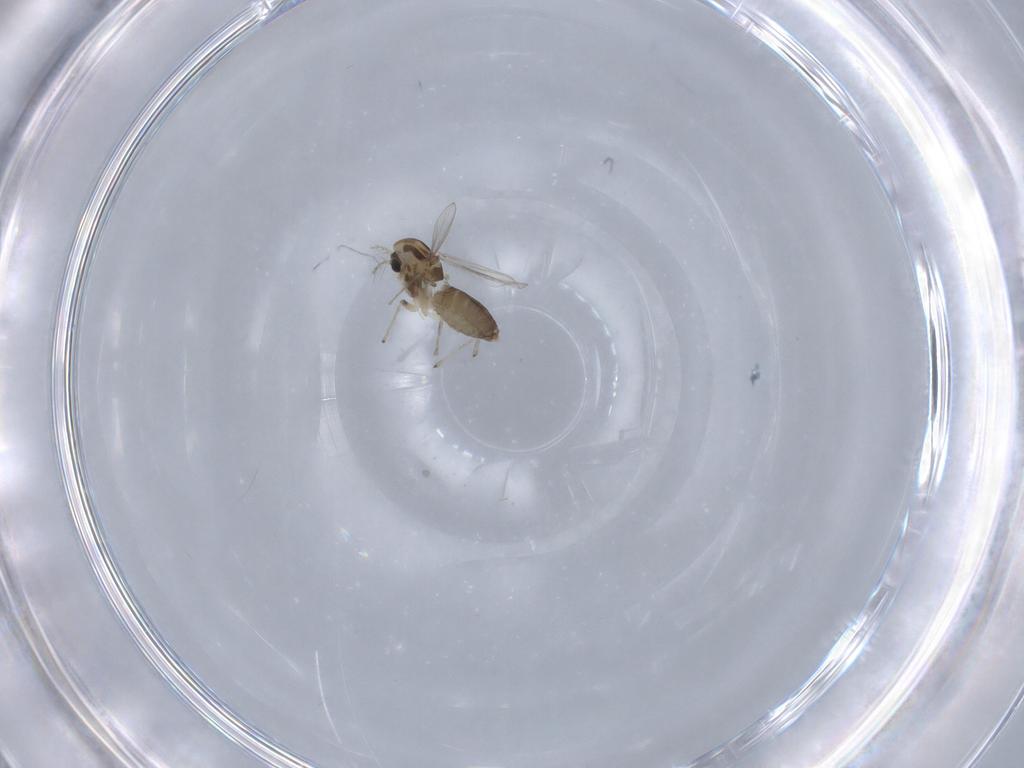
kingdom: Animalia
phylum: Arthropoda
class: Insecta
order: Diptera
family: Chironomidae
